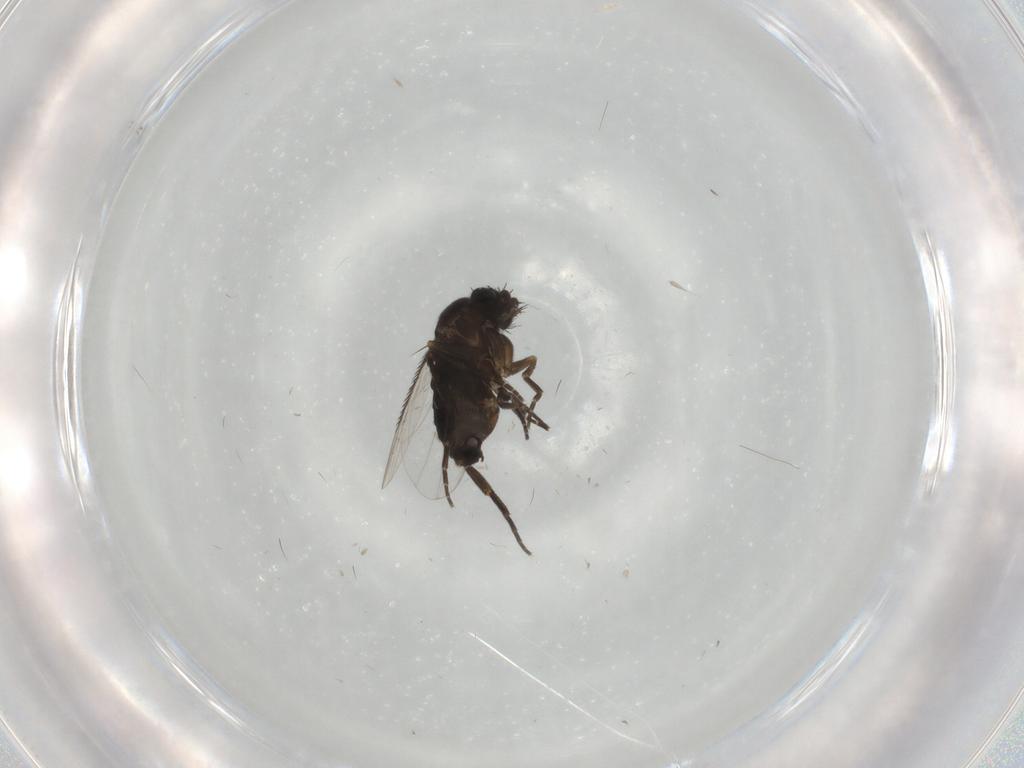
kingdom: Animalia
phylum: Arthropoda
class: Insecta
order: Diptera
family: Phoridae
